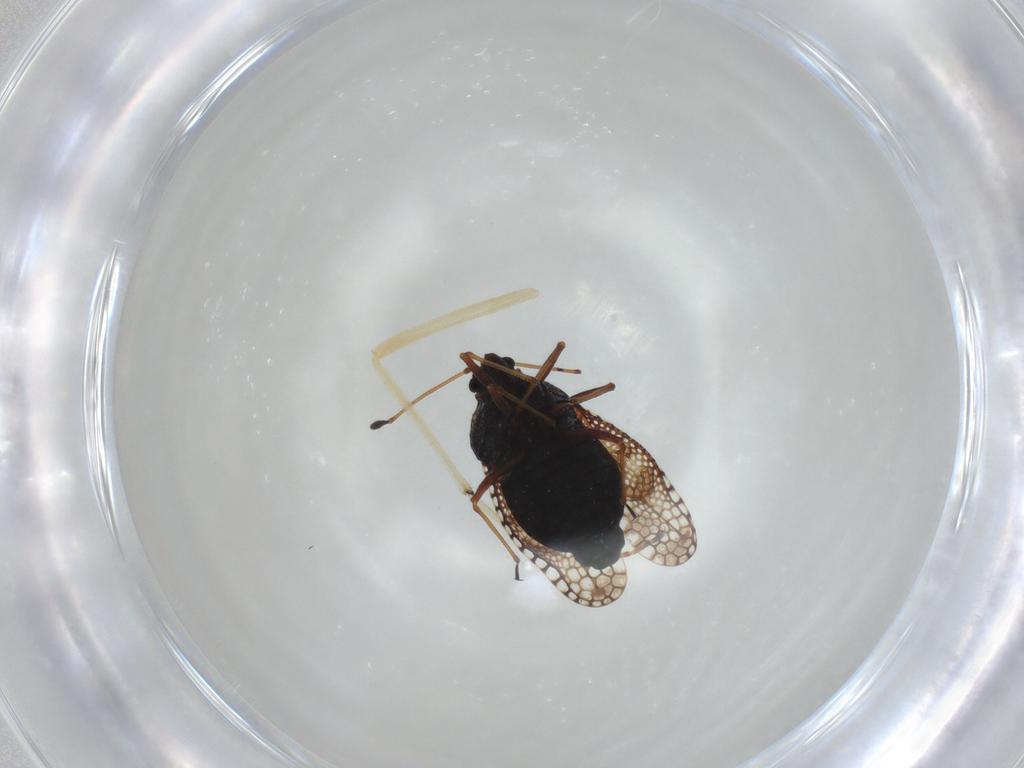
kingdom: Animalia
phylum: Arthropoda
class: Insecta
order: Hemiptera
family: Tingidae
